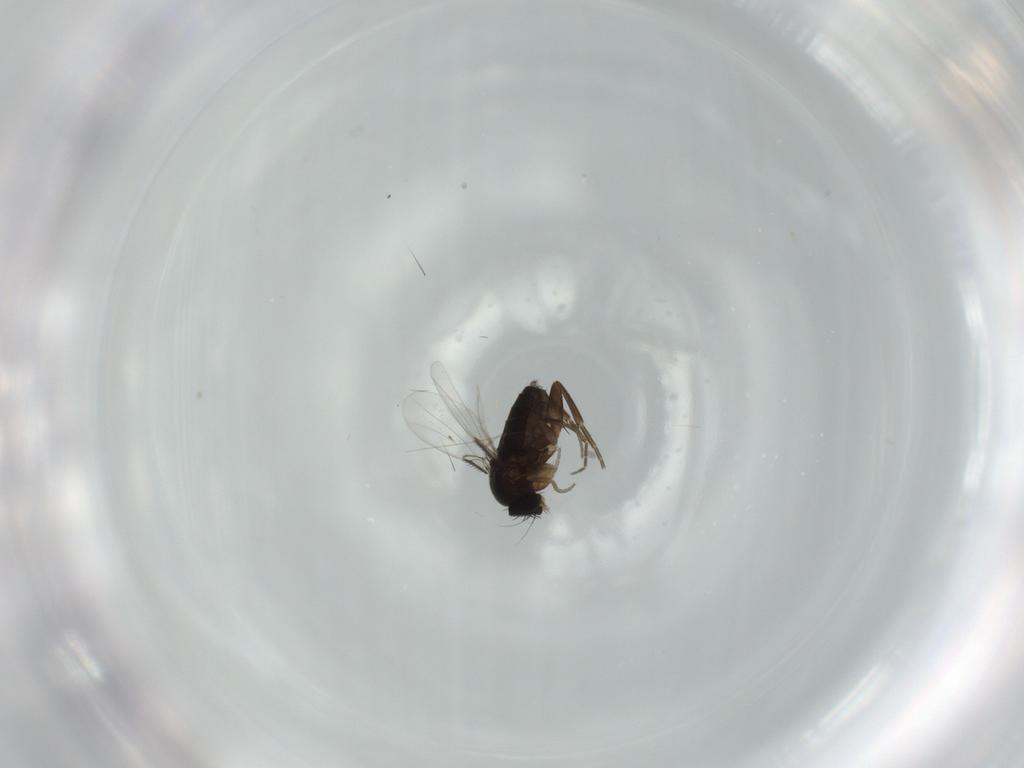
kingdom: Animalia
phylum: Arthropoda
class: Insecta
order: Diptera
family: Phoridae
